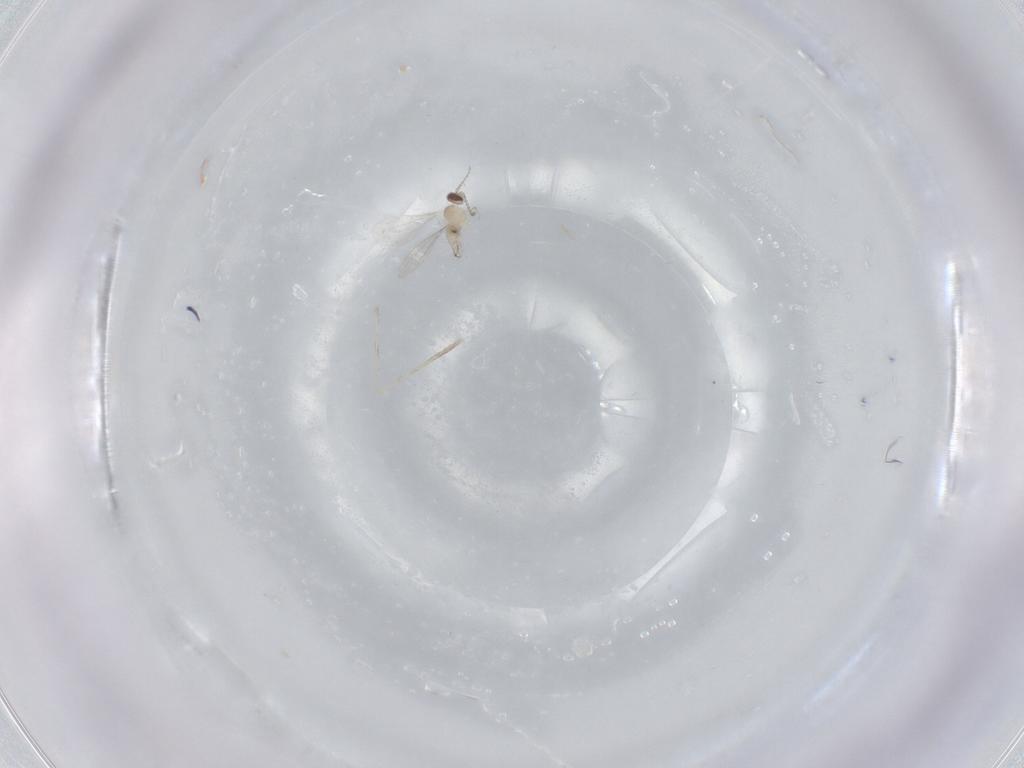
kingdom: Animalia
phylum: Arthropoda
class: Insecta
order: Diptera
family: Cecidomyiidae
